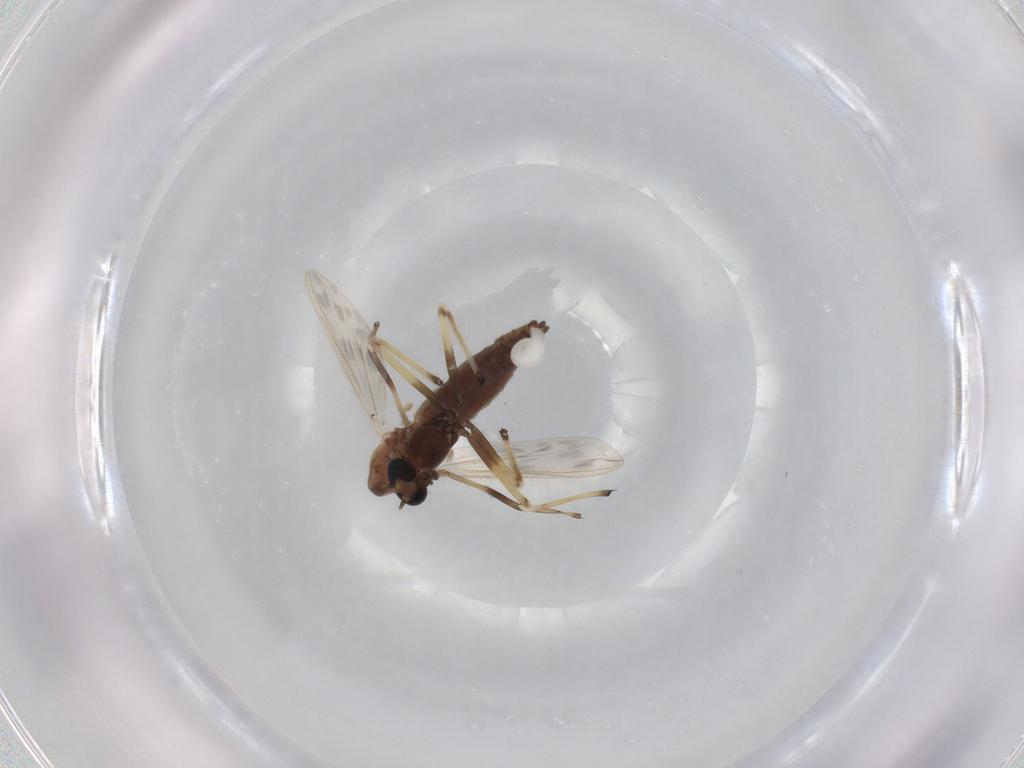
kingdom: Animalia
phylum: Arthropoda
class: Insecta
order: Diptera
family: Chironomidae
